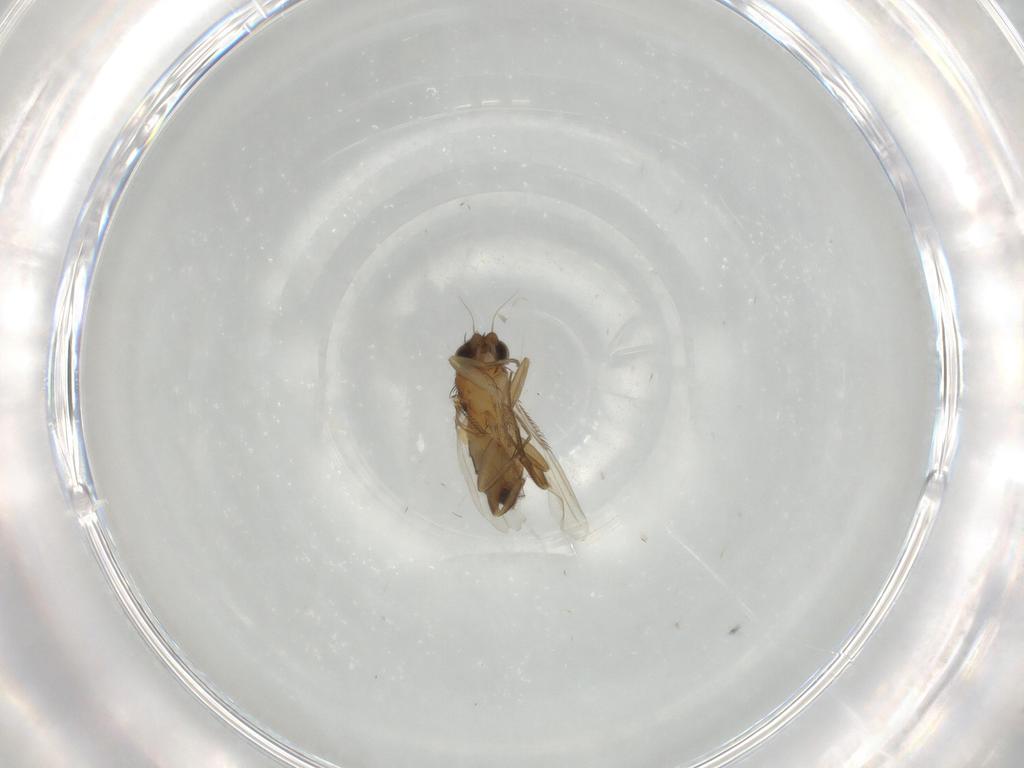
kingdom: Animalia
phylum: Arthropoda
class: Insecta
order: Diptera
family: Phoridae
